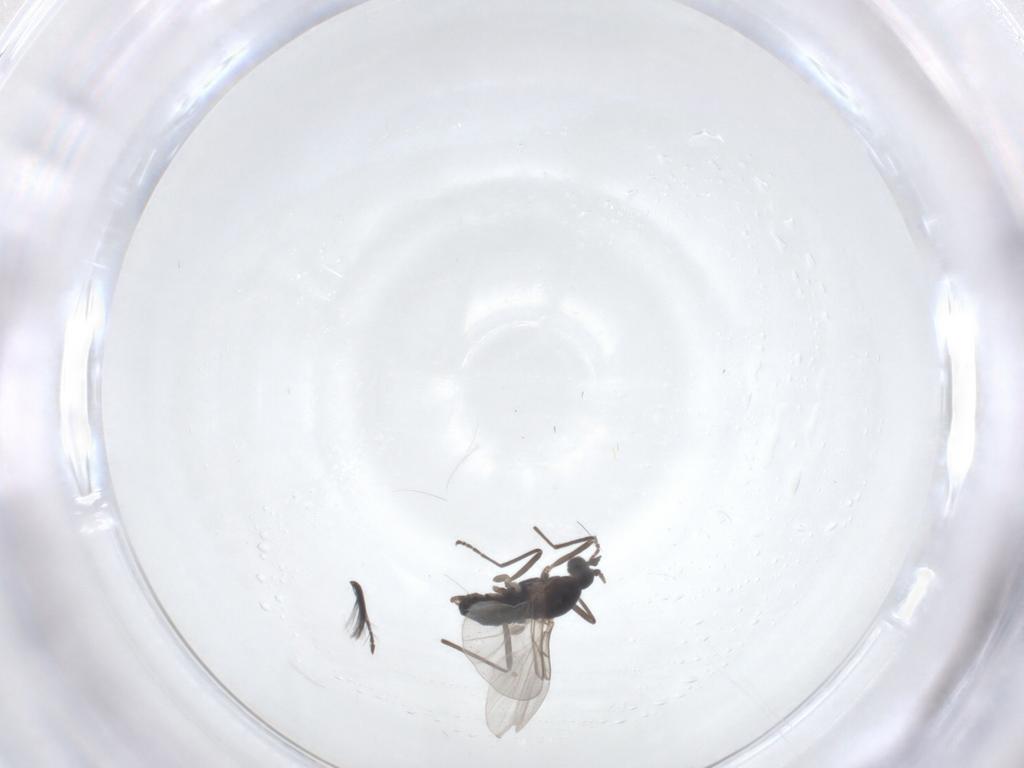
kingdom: Animalia
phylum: Arthropoda
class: Insecta
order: Diptera
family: Cecidomyiidae
